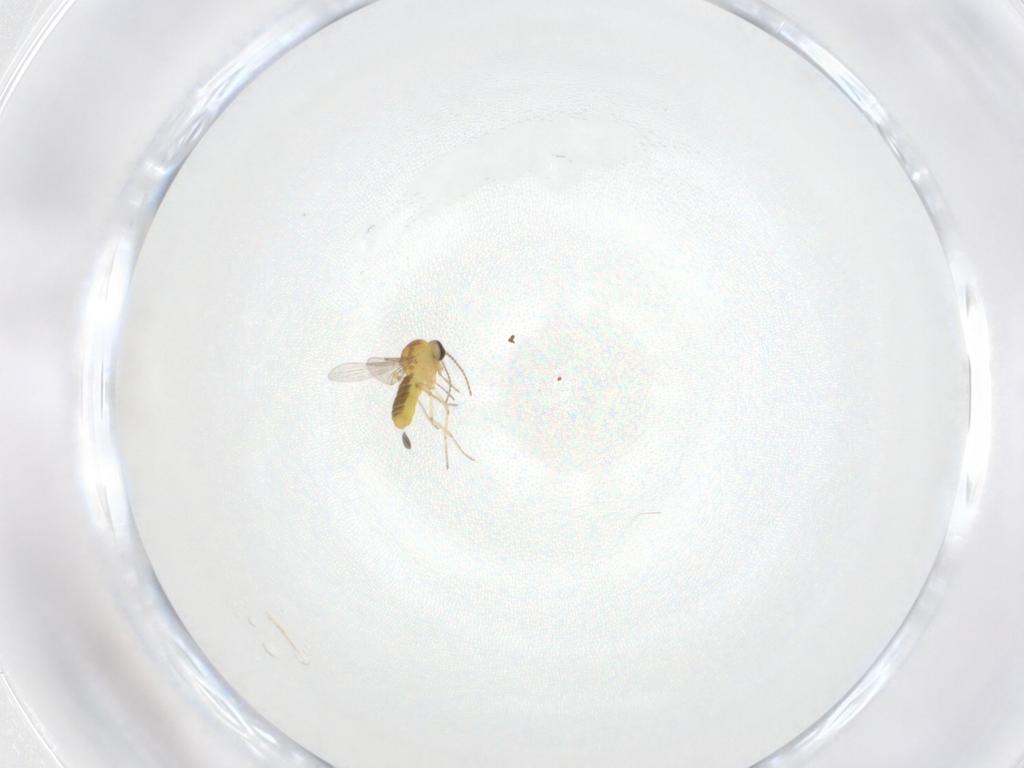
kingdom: Animalia
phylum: Arthropoda
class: Insecta
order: Diptera
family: Ceratopogonidae
